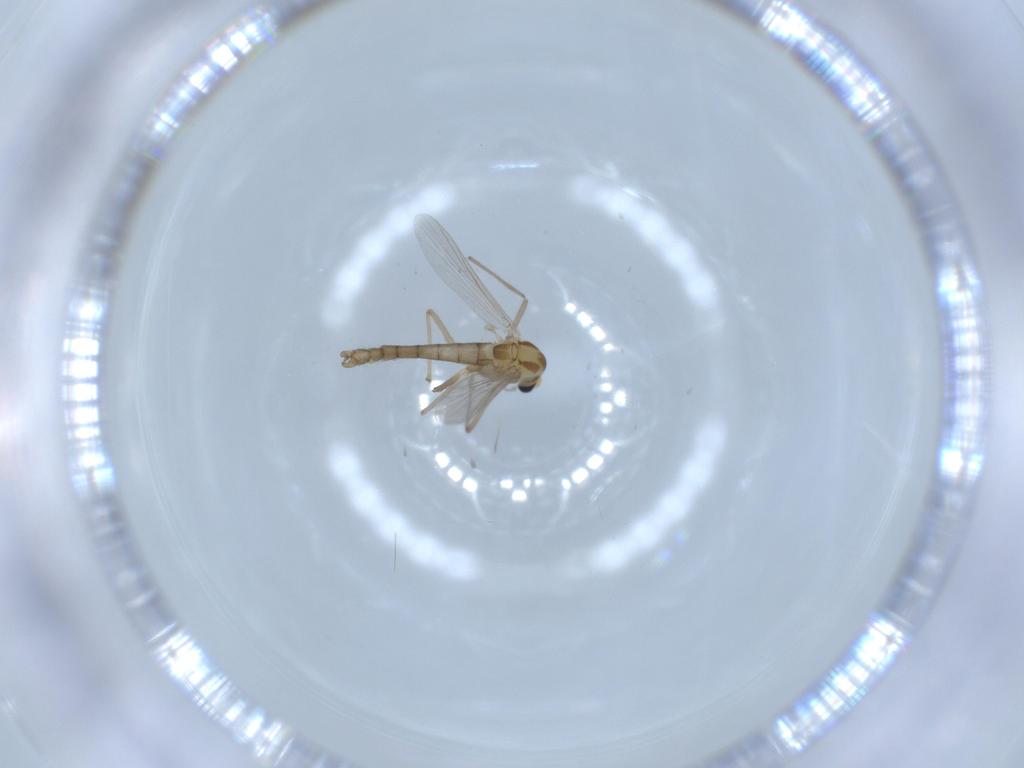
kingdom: Animalia
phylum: Arthropoda
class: Insecta
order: Diptera
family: Chironomidae
